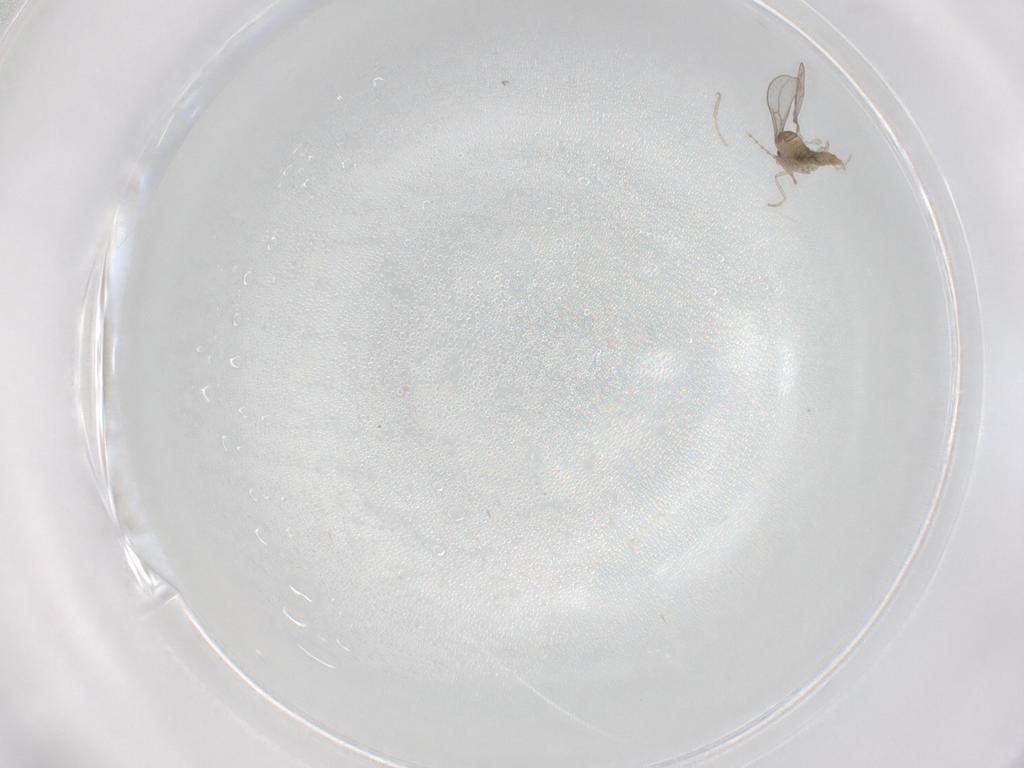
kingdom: Animalia
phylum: Arthropoda
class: Insecta
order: Diptera
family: Cecidomyiidae
